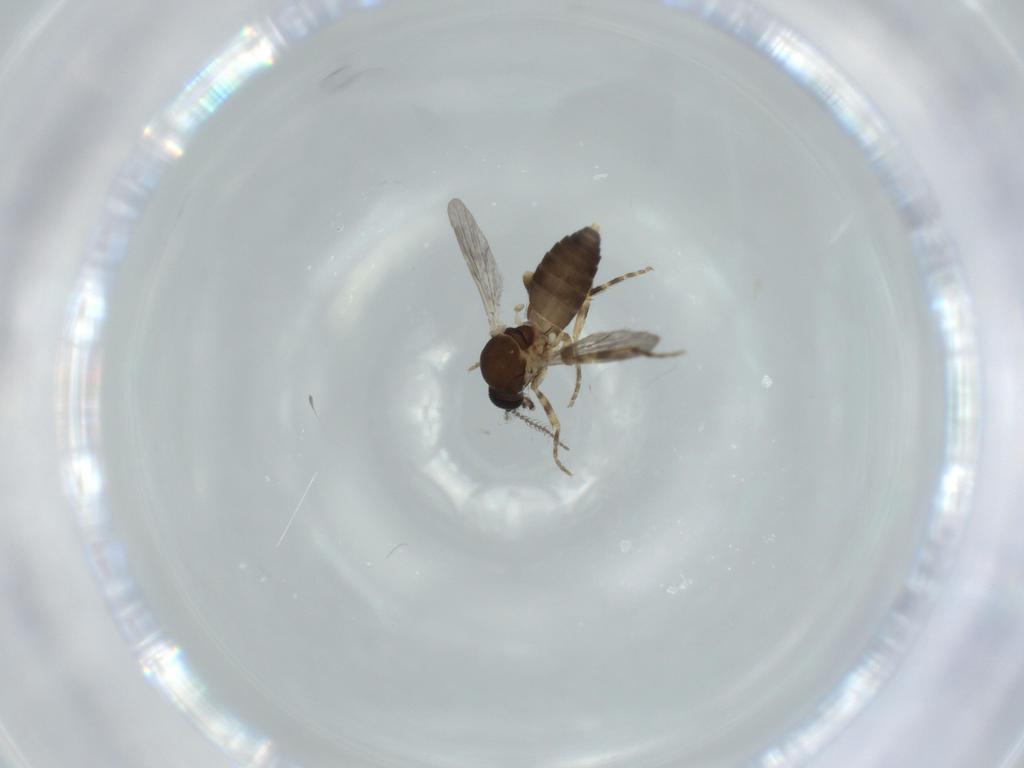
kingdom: Animalia
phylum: Arthropoda
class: Insecta
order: Diptera
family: Ceratopogonidae
